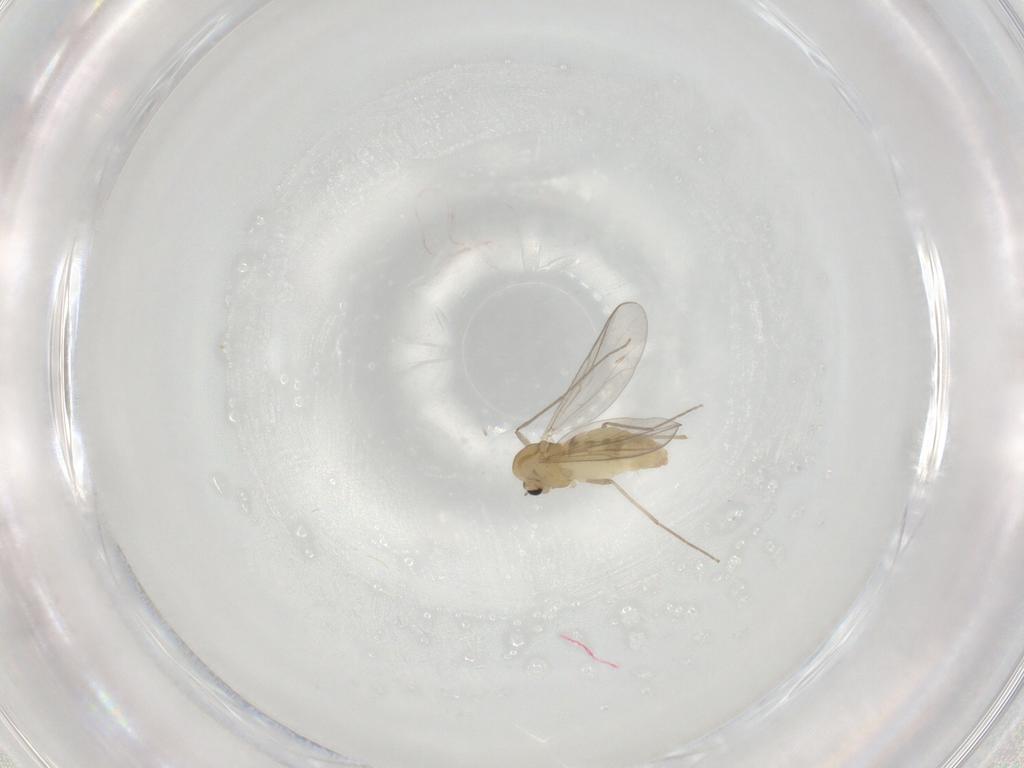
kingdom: Animalia
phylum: Arthropoda
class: Insecta
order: Diptera
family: Chironomidae
